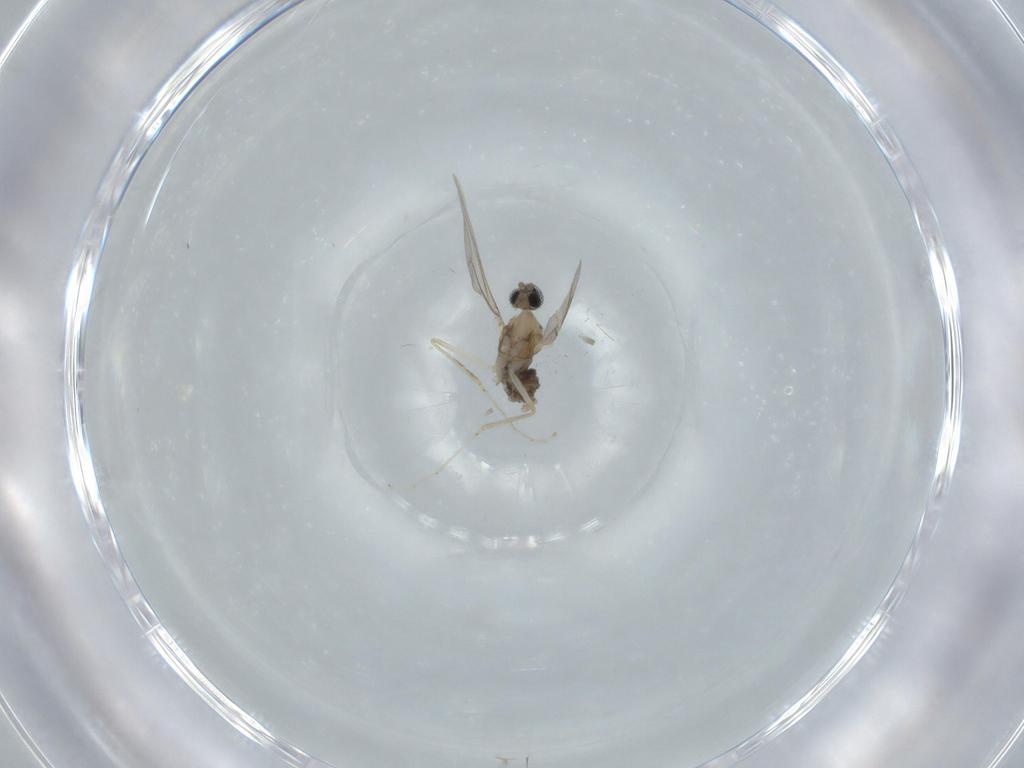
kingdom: Animalia
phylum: Arthropoda
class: Insecta
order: Diptera
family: Cecidomyiidae
